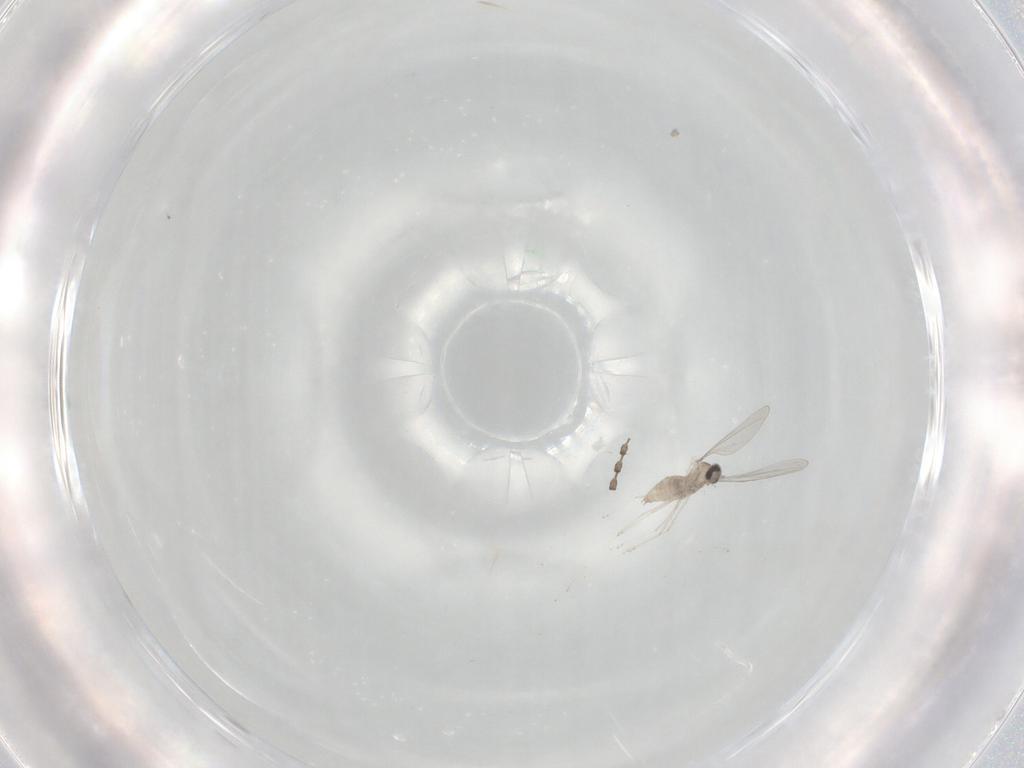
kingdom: Animalia
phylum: Arthropoda
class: Insecta
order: Diptera
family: Cecidomyiidae
